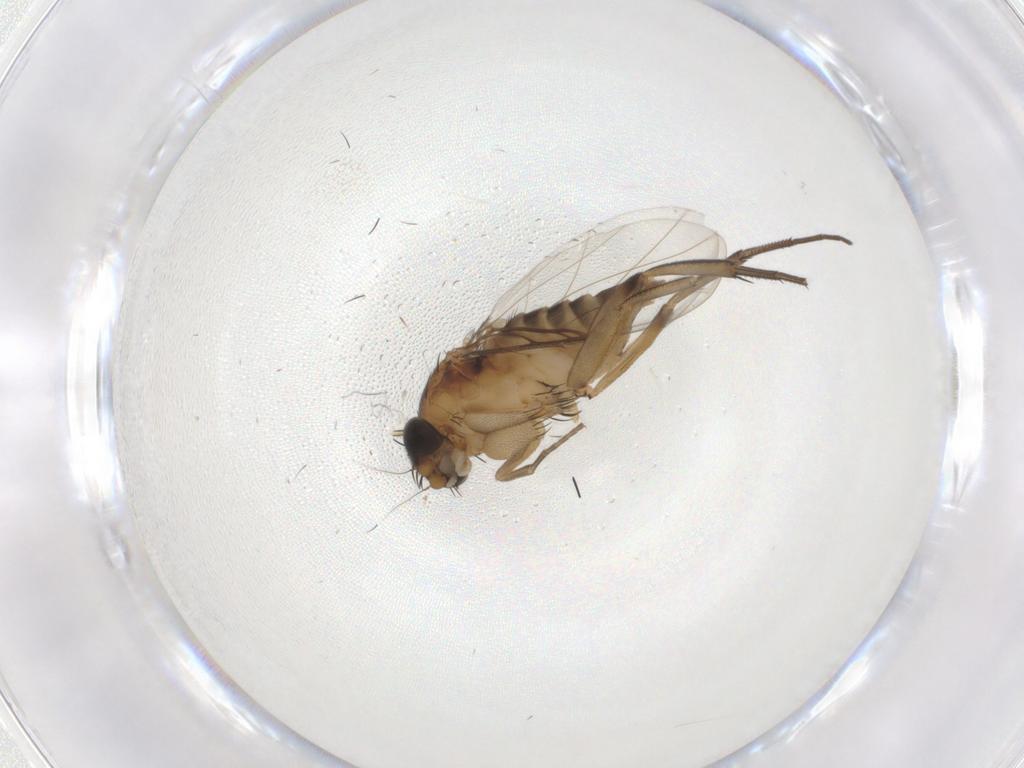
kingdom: Animalia
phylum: Arthropoda
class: Insecta
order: Diptera
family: Phoridae
